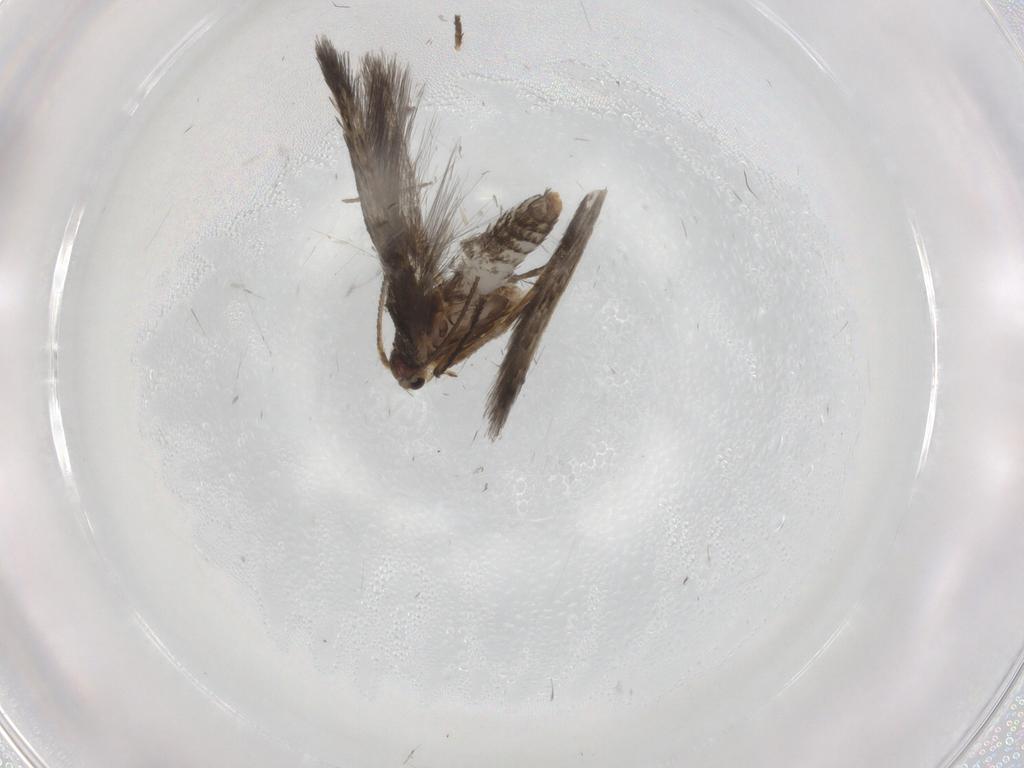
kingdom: Animalia
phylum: Arthropoda
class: Insecta
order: Lepidoptera
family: Nepticulidae
